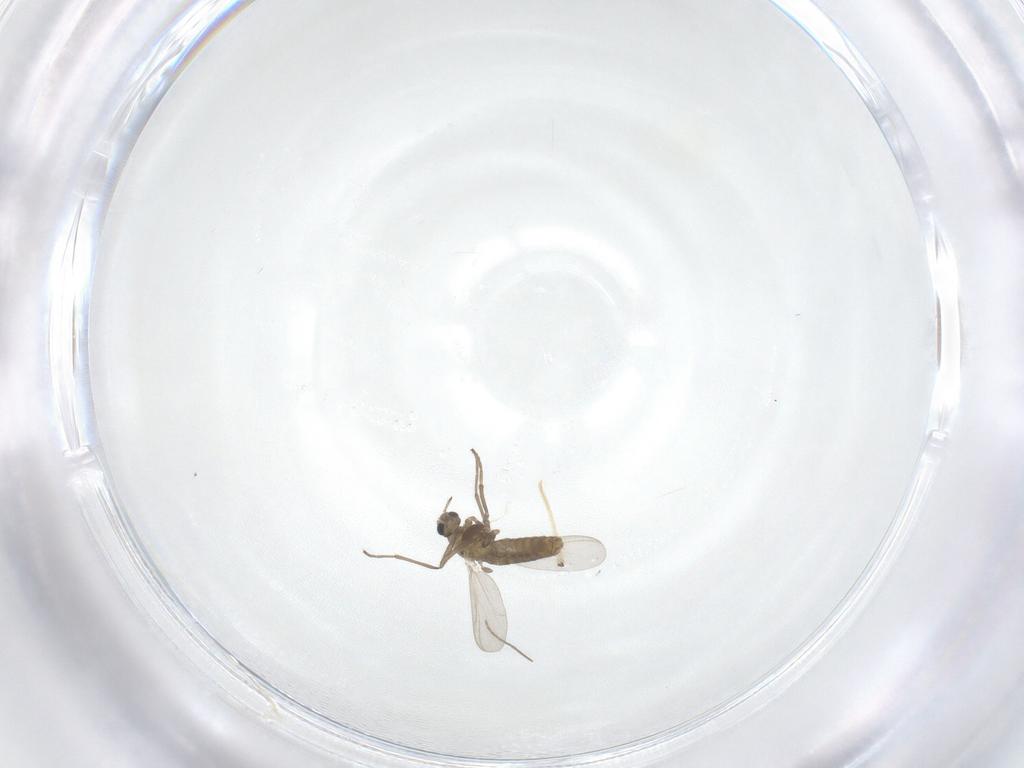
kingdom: Animalia
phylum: Arthropoda
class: Insecta
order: Diptera
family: Chironomidae
